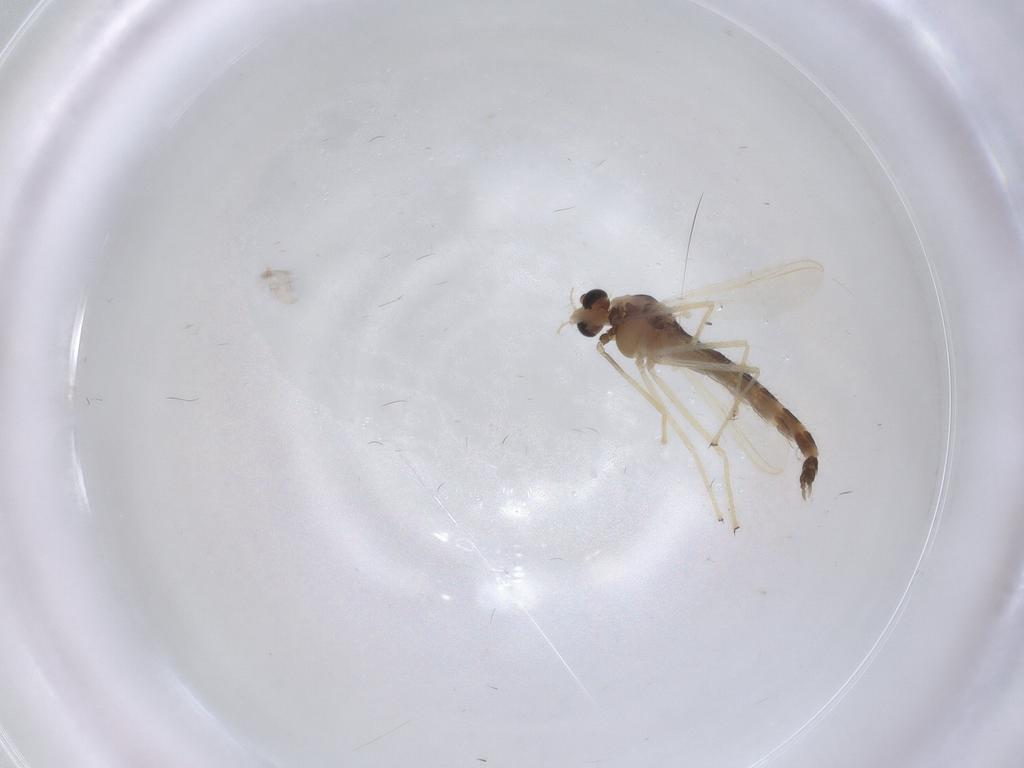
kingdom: Animalia
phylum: Arthropoda
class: Insecta
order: Diptera
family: Chironomidae
